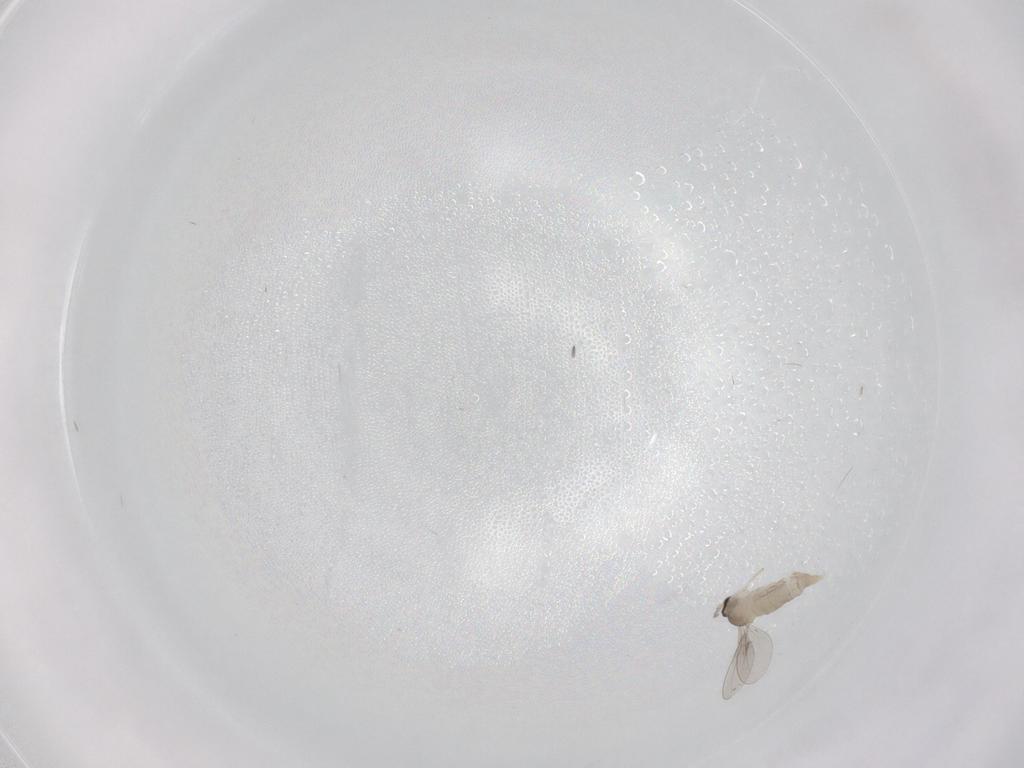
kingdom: Animalia
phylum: Arthropoda
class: Insecta
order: Diptera
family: Cecidomyiidae
